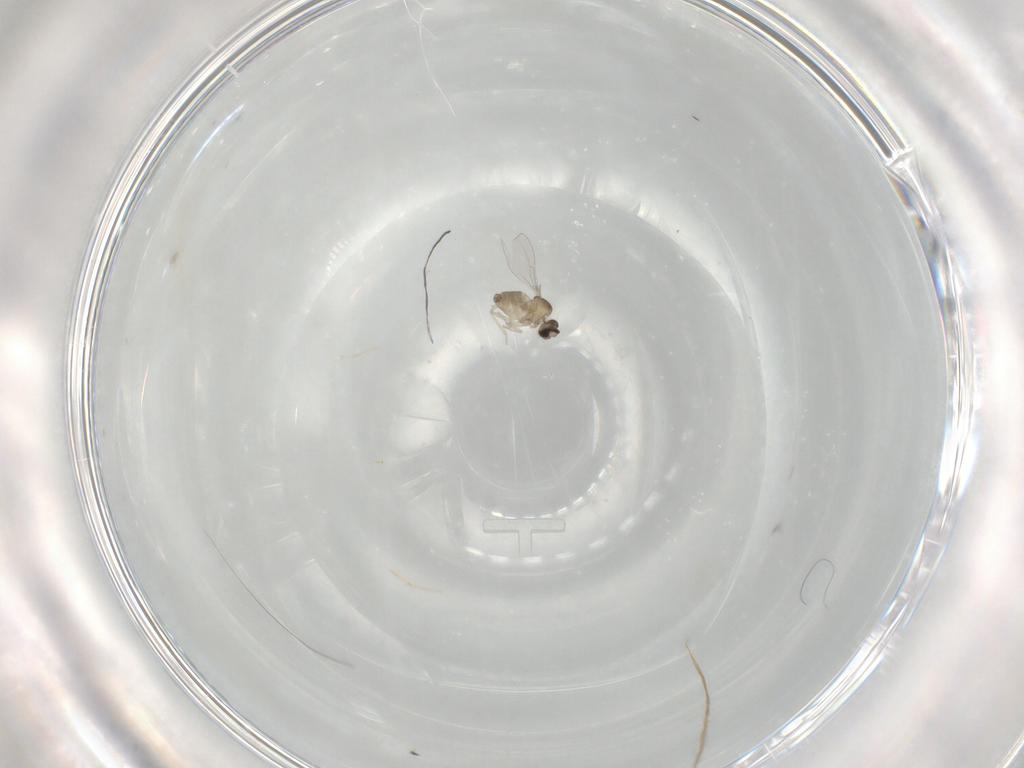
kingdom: Animalia
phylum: Arthropoda
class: Insecta
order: Diptera
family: Cecidomyiidae
